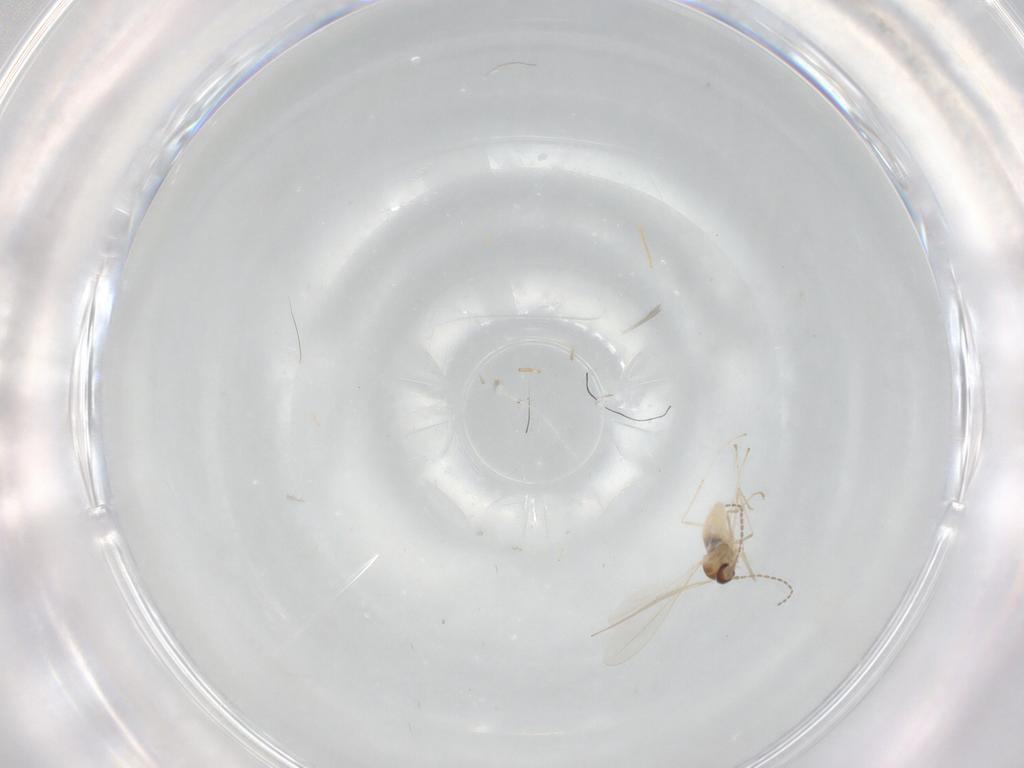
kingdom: Animalia
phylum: Arthropoda
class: Insecta
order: Diptera
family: Cecidomyiidae
